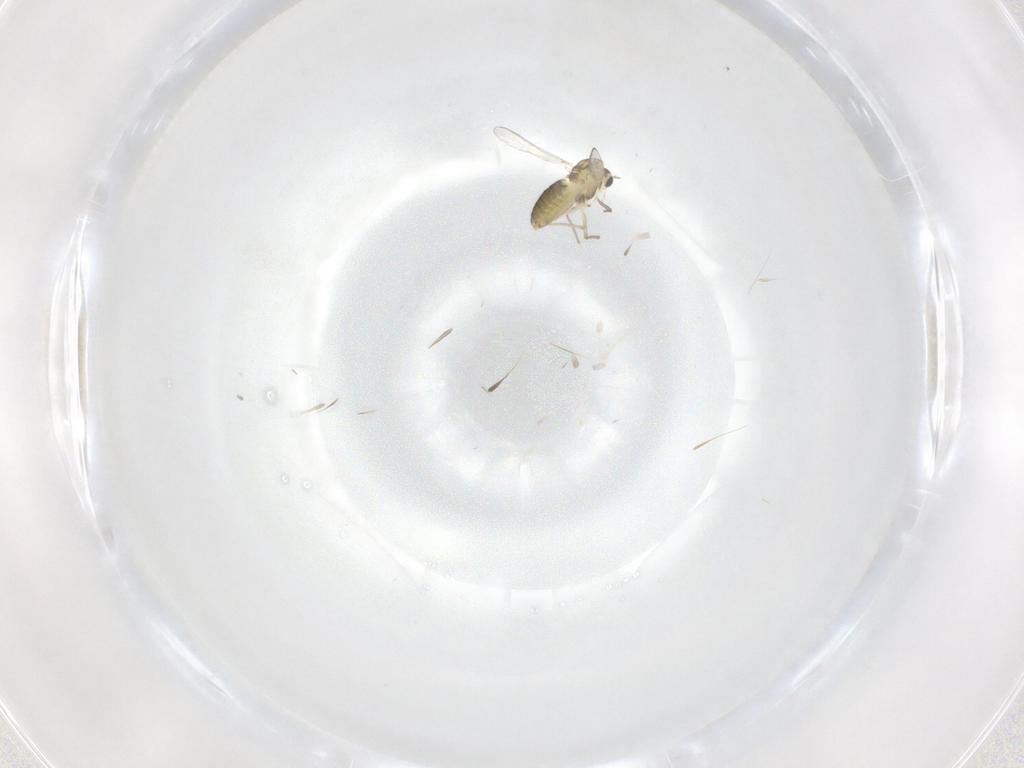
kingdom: Animalia
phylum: Arthropoda
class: Insecta
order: Diptera
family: Chironomidae
